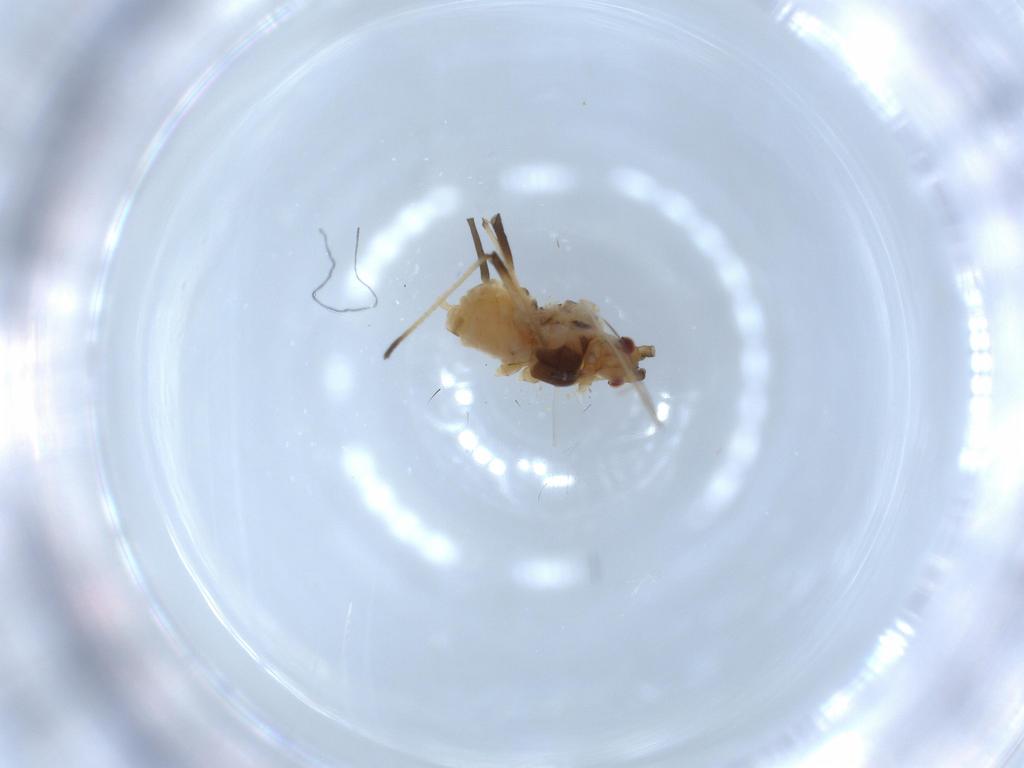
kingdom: Animalia
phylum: Arthropoda
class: Insecta
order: Hemiptera
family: Aphididae
